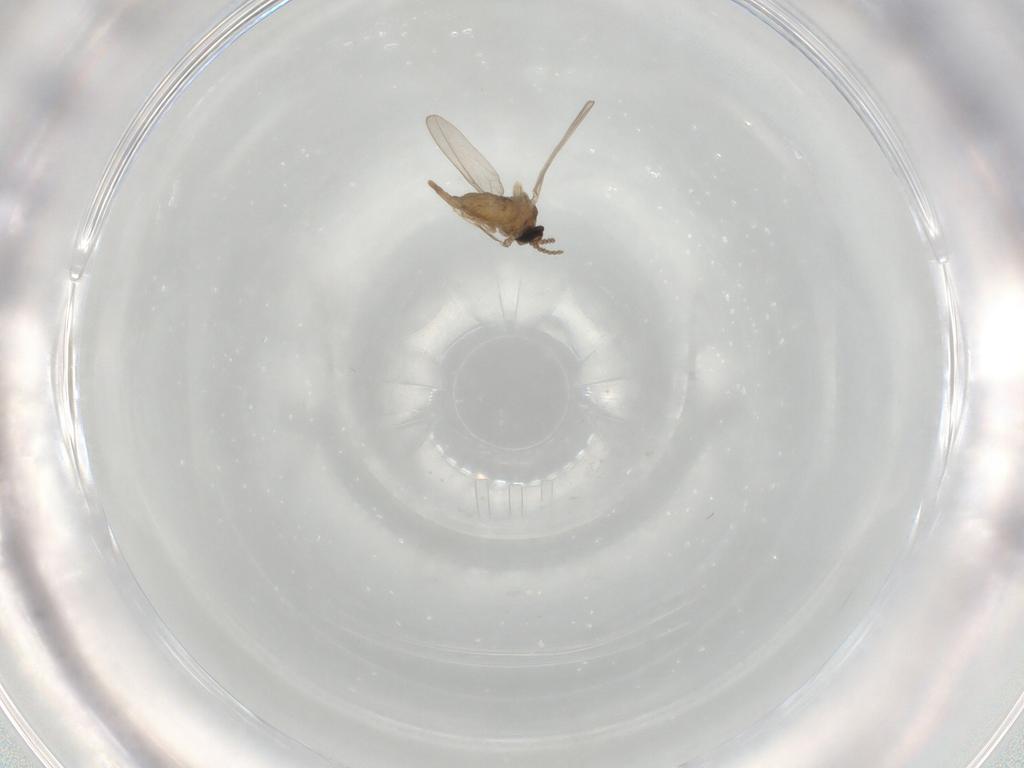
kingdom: Animalia
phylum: Arthropoda
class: Insecta
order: Diptera
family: Cecidomyiidae
